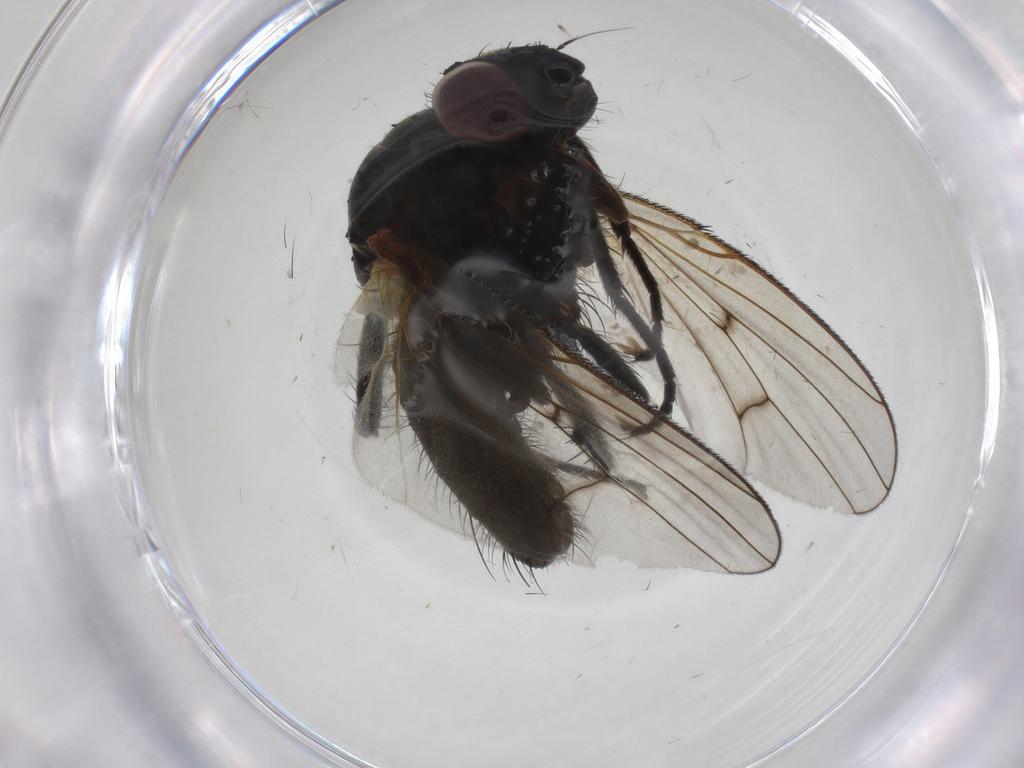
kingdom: Animalia
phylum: Arthropoda
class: Insecta
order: Diptera
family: Anthomyiidae
